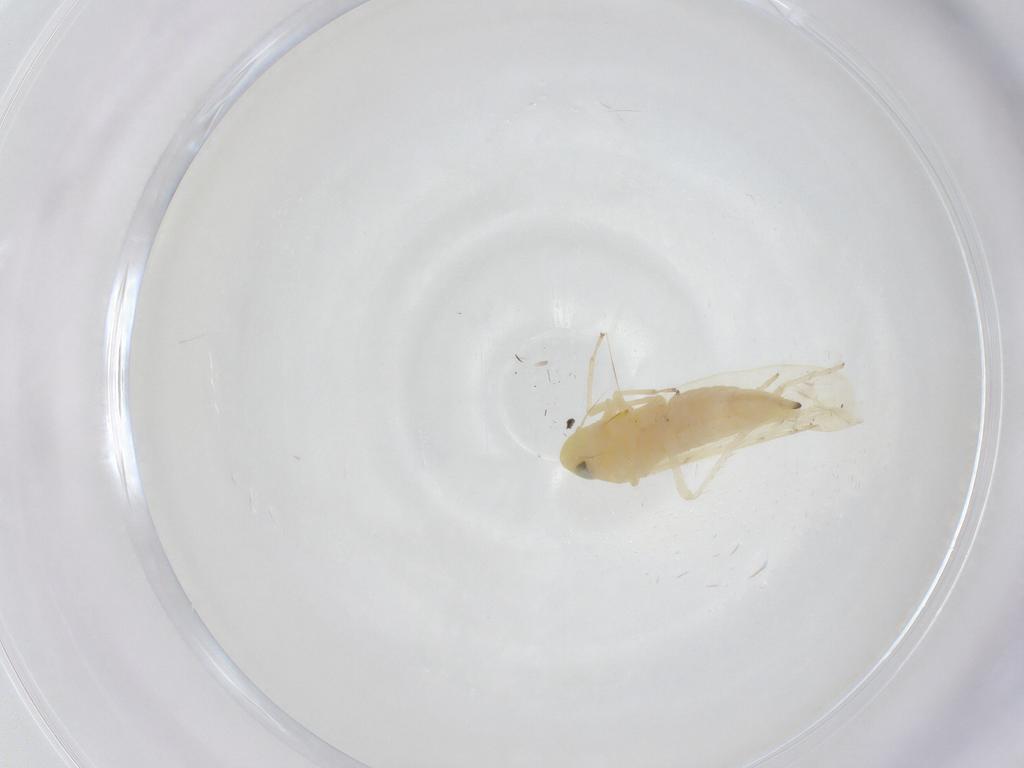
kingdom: Animalia
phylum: Arthropoda
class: Insecta
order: Hemiptera
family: Cicadellidae
